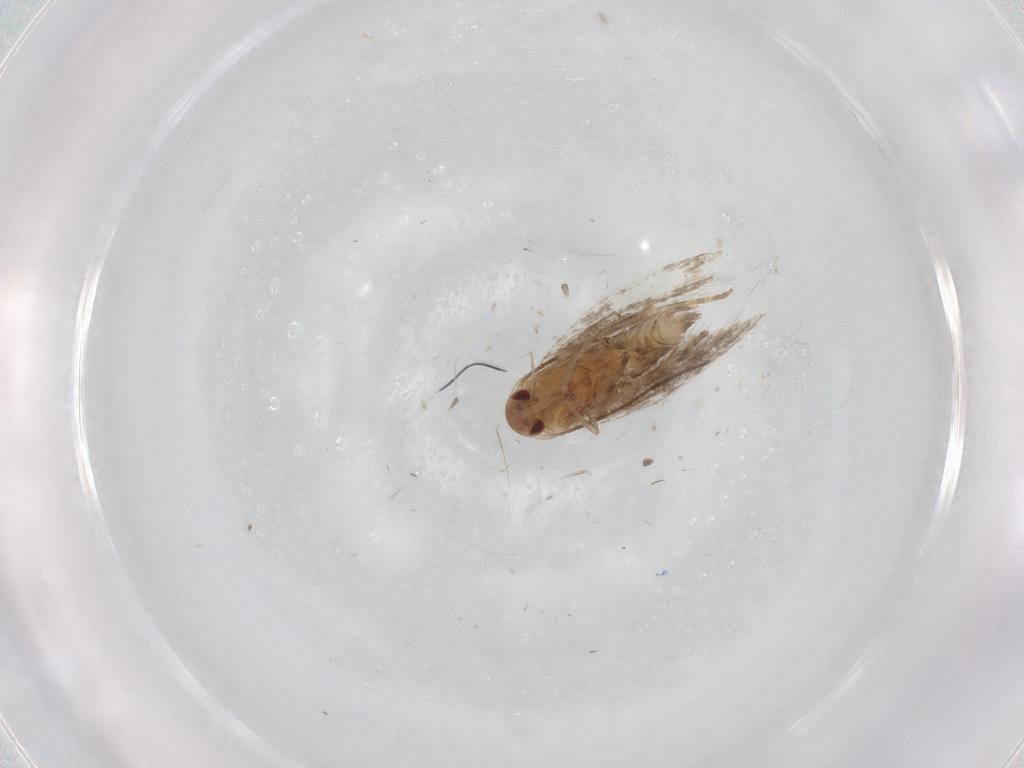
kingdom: Animalia
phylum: Arthropoda
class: Insecta
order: Lepidoptera
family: Elachistidae
